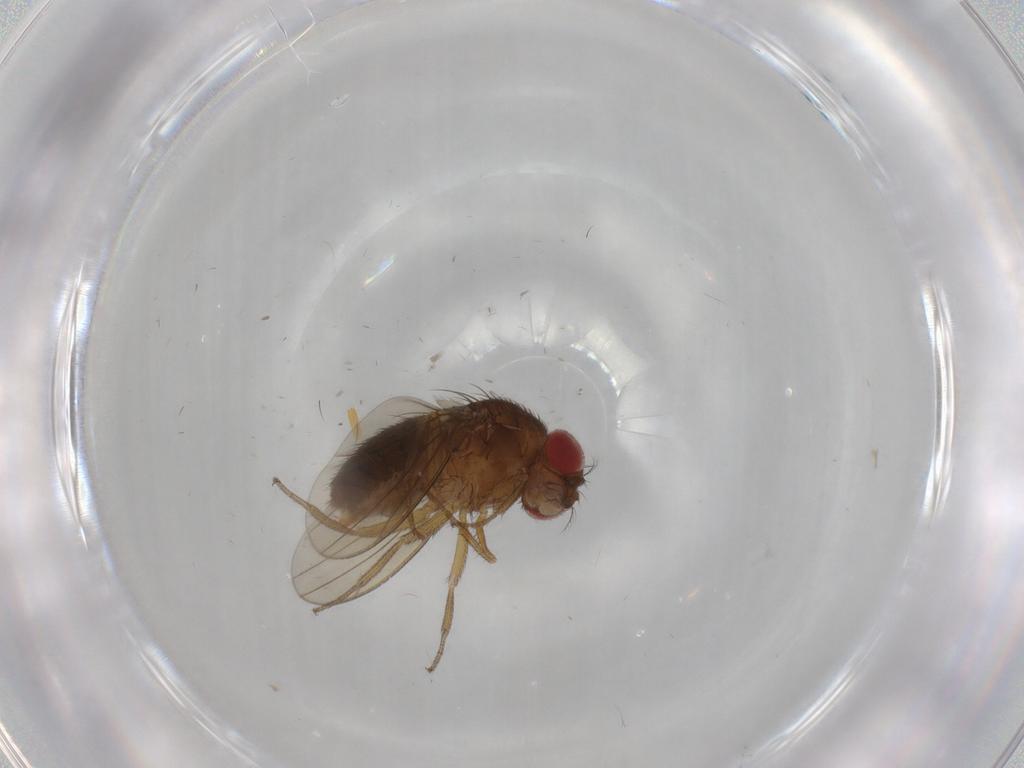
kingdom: Animalia
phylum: Arthropoda
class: Insecta
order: Diptera
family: Drosophilidae
